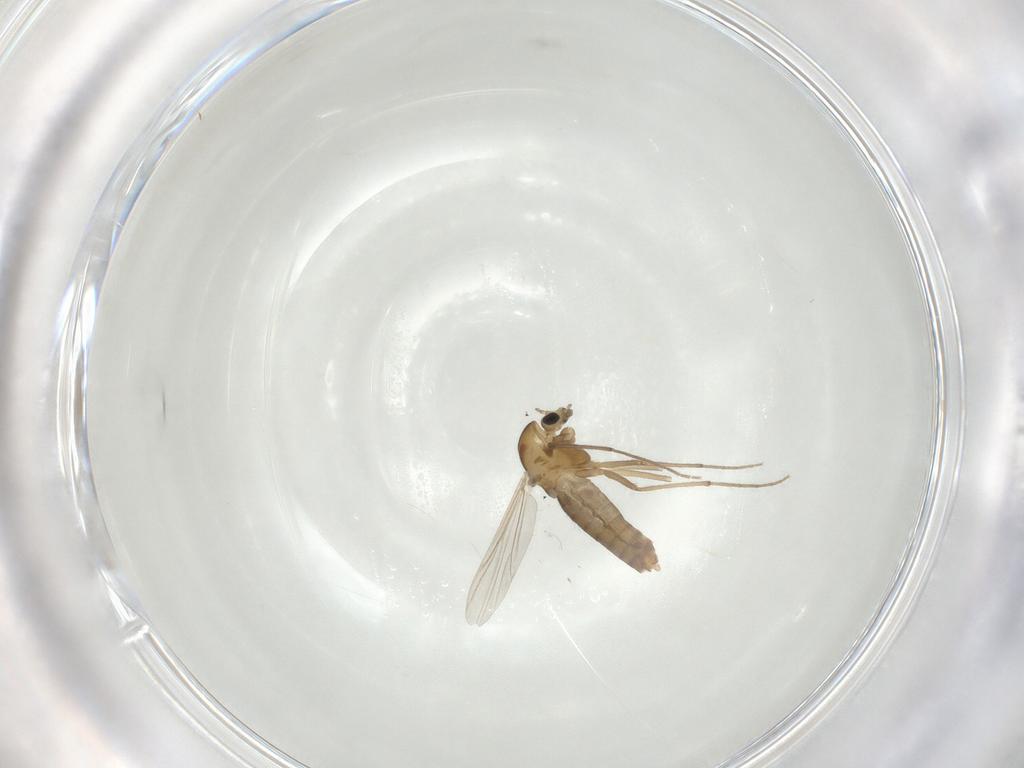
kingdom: Animalia
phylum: Arthropoda
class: Insecta
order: Diptera
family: Chironomidae
